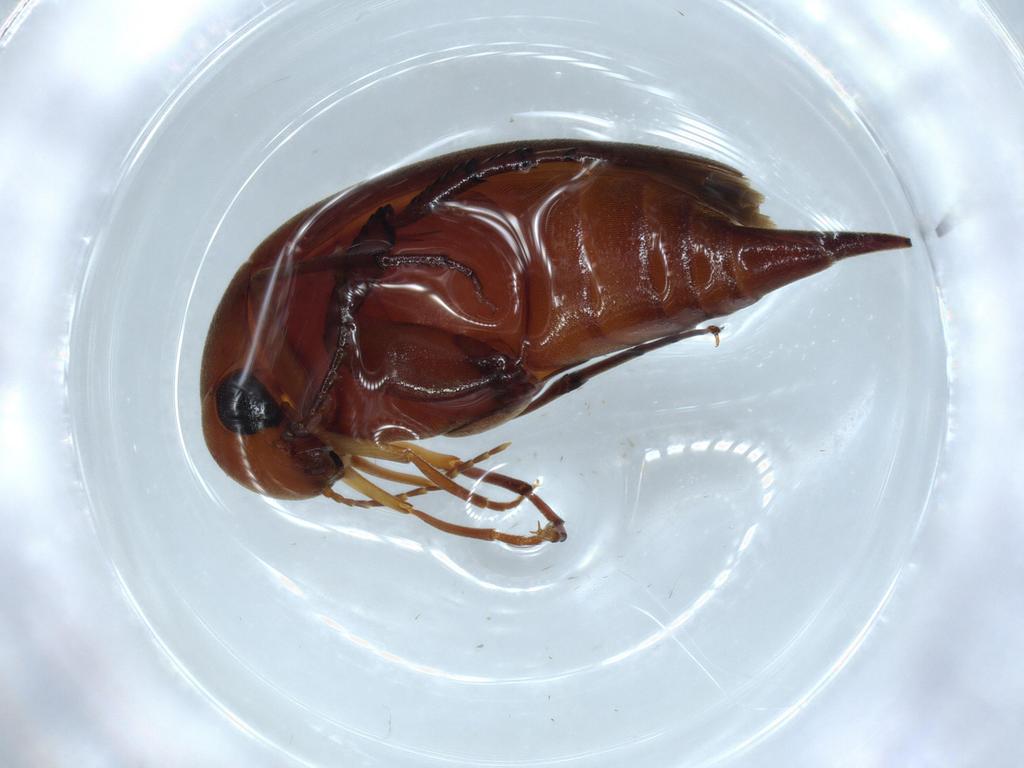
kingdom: Animalia
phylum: Arthropoda
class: Insecta
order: Coleoptera
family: Mordellidae
